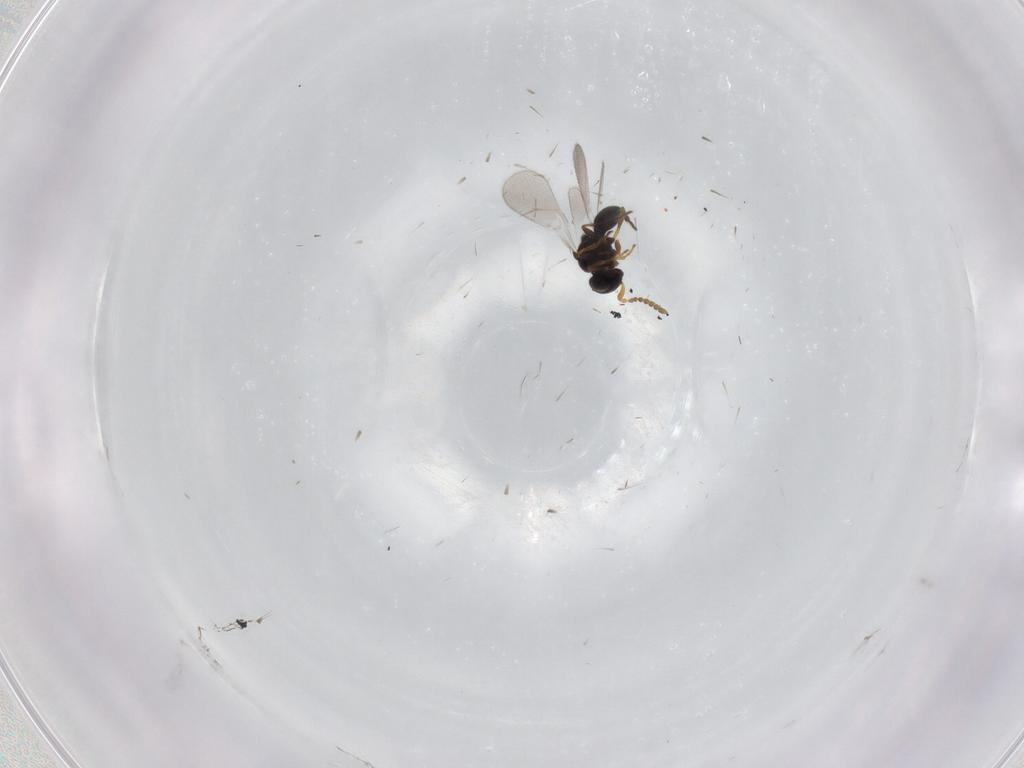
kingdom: Animalia
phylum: Arthropoda
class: Insecta
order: Hymenoptera
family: Platygastridae
